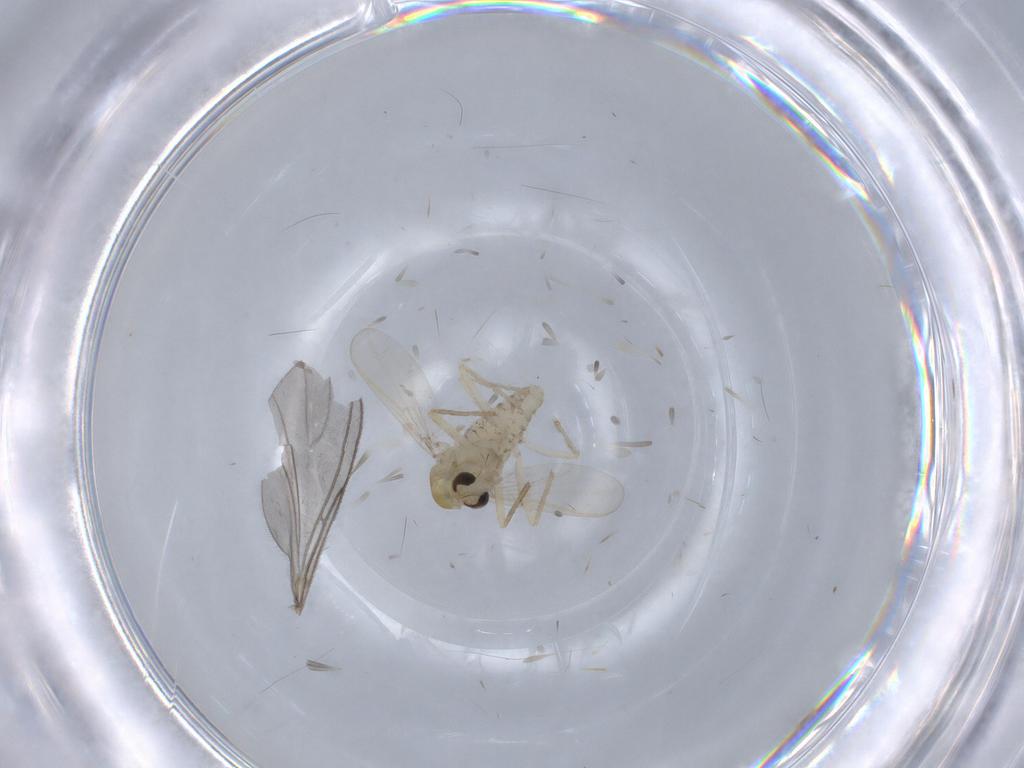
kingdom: Animalia
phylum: Arthropoda
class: Insecta
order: Diptera
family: Chironomidae
